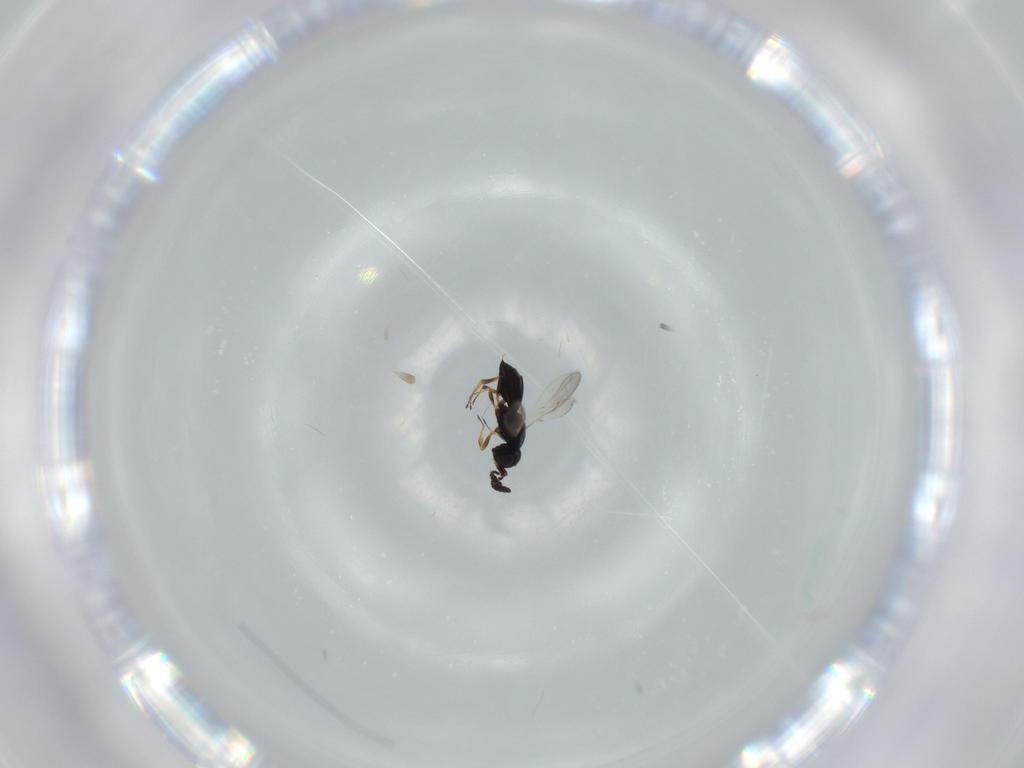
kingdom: Animalia
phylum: Arthropoda
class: Insecta
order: Hymenoptera
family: Scelionidae
